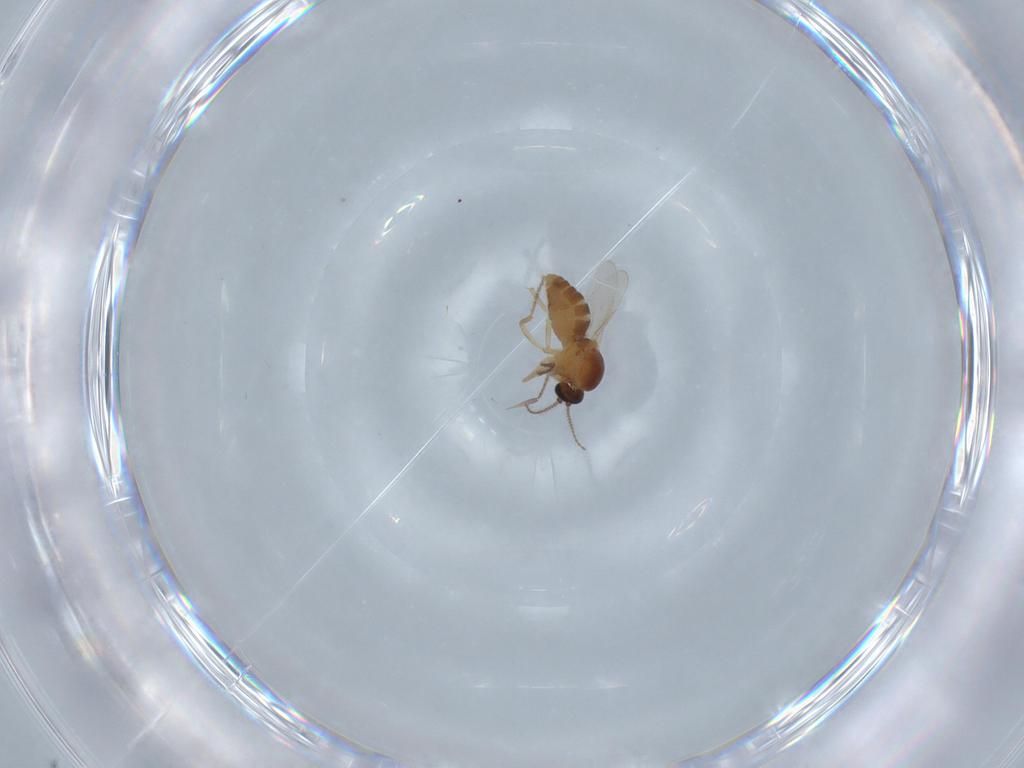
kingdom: Animalia
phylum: Arthropoda
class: Insecta
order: Diptera
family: Ceratopogonidae
